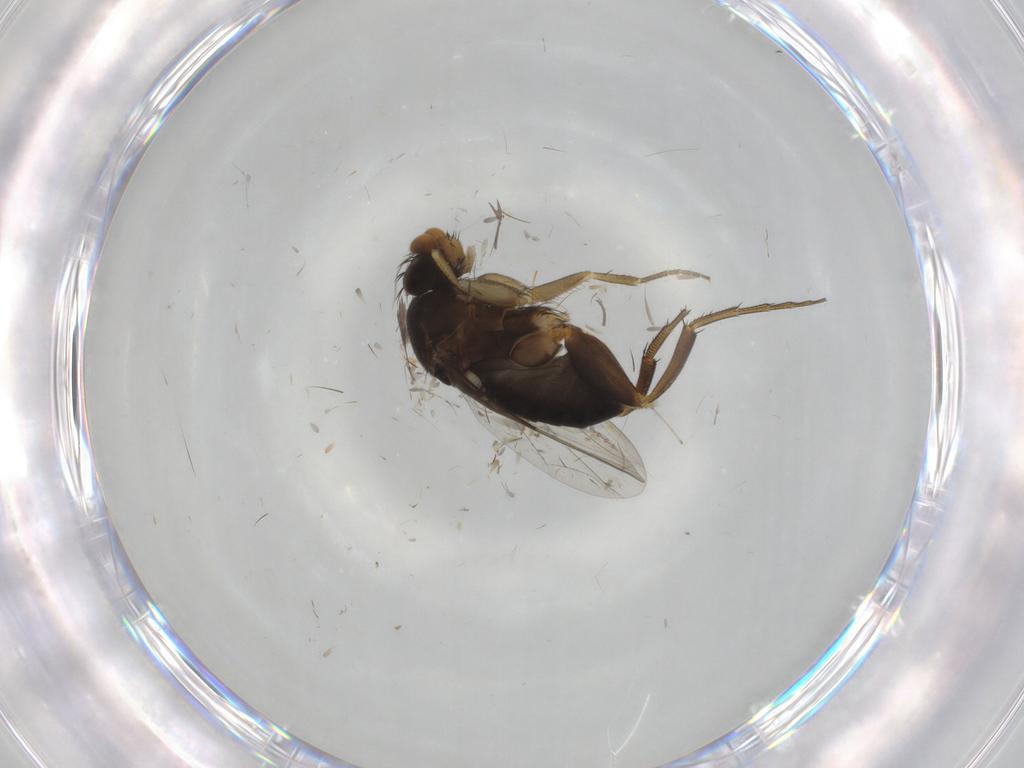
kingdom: Animalia
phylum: Arthropoda
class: Insecta
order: Diptera
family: Phoridae
